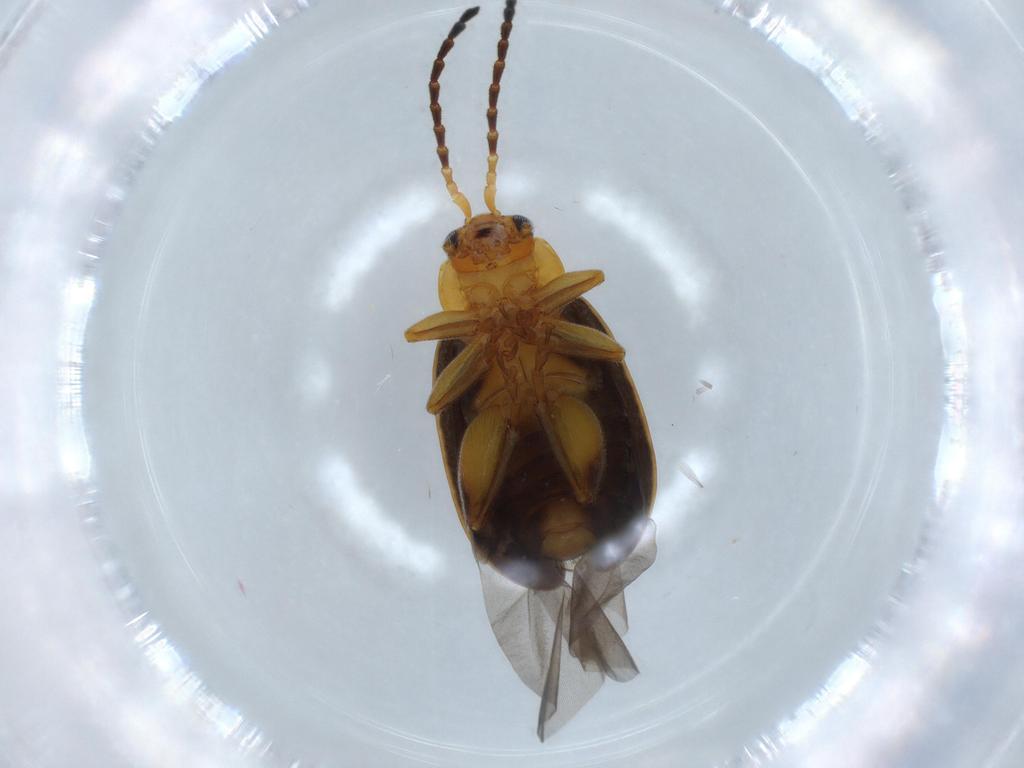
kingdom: Animalia
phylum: Arthropoda
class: Insecta
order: Coleoptera
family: Chrysomelidae
